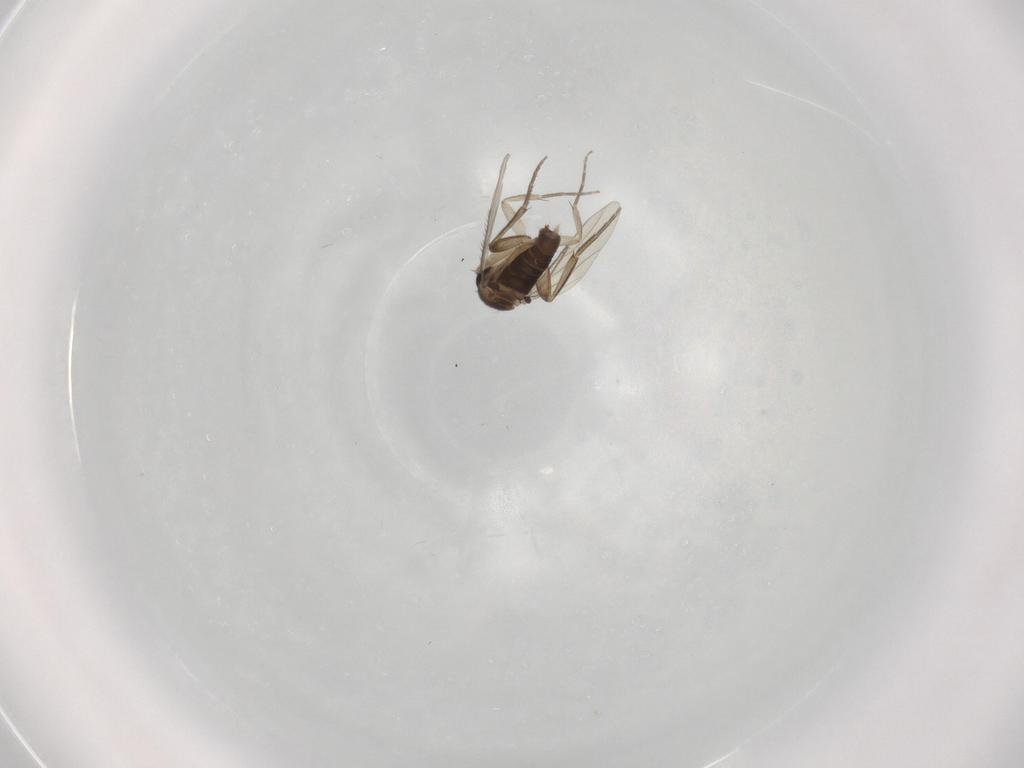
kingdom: Animalia
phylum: Arthropoda
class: Insecta
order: Diptera
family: Phoridae
